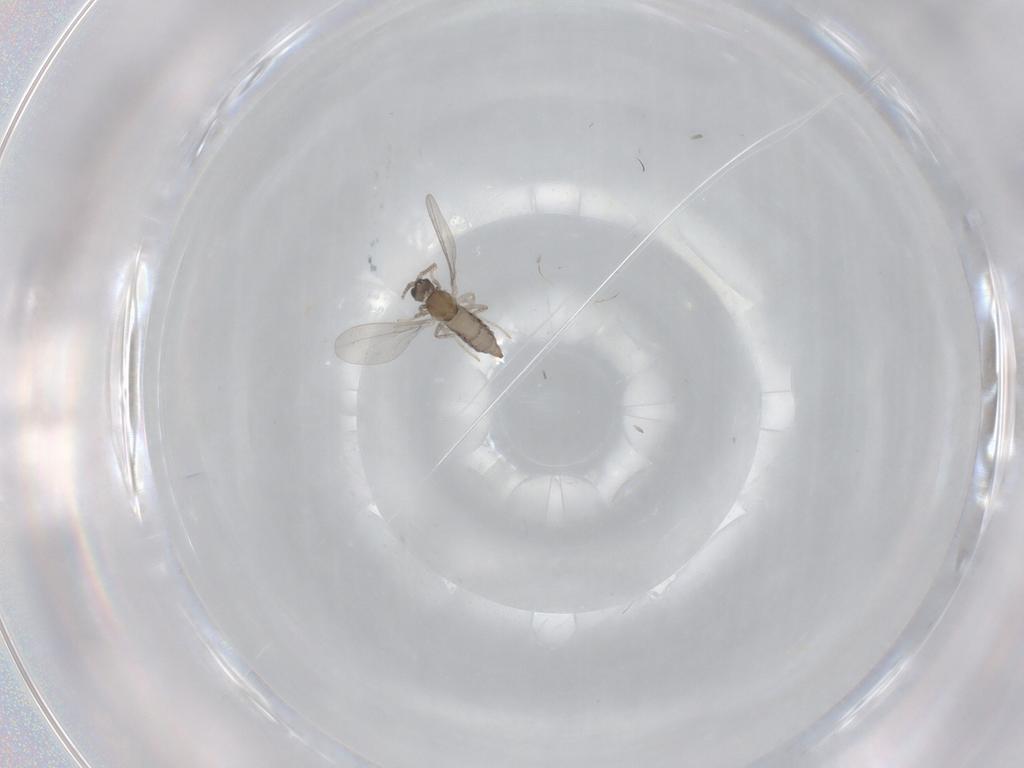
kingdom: Animalia
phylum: Arthropoda
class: Insecta
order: Diptera
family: Cecidomyiidae
